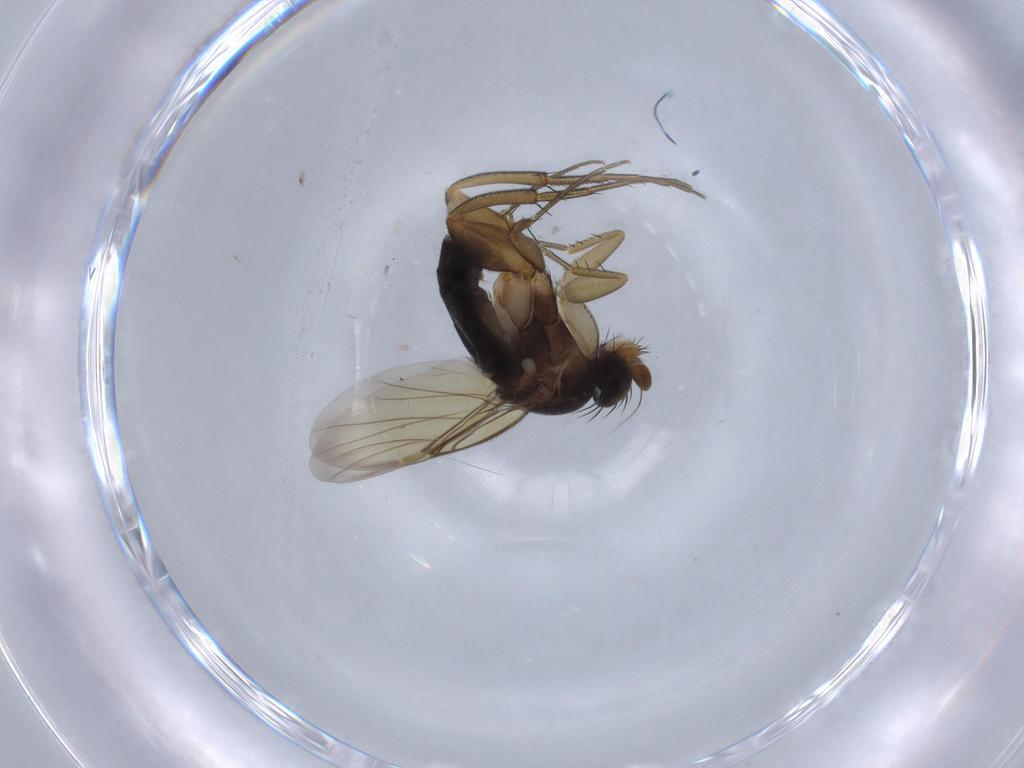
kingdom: Animalia
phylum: Arthropoda
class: Insecta
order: Diptera
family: Phoridae
